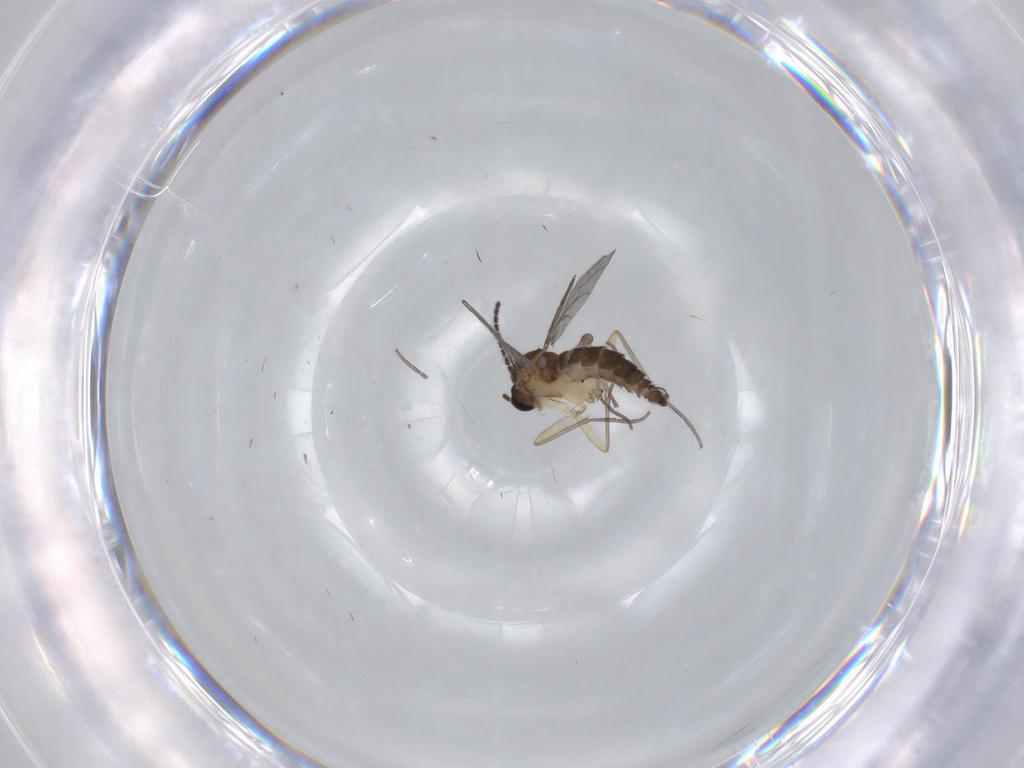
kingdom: Animalia
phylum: Arthropoda
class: Insecta
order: Diptera
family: Sciaridae
